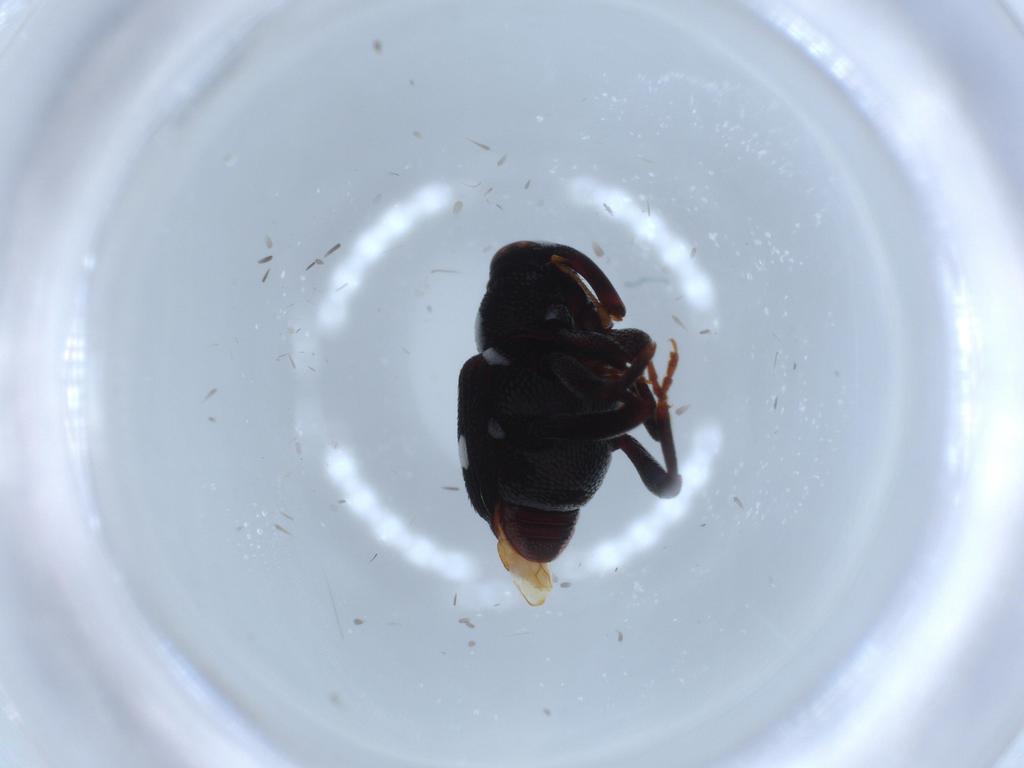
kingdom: Animalia
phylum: Arthropoda
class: Insecta
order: Coleoptera
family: Curculionidae
